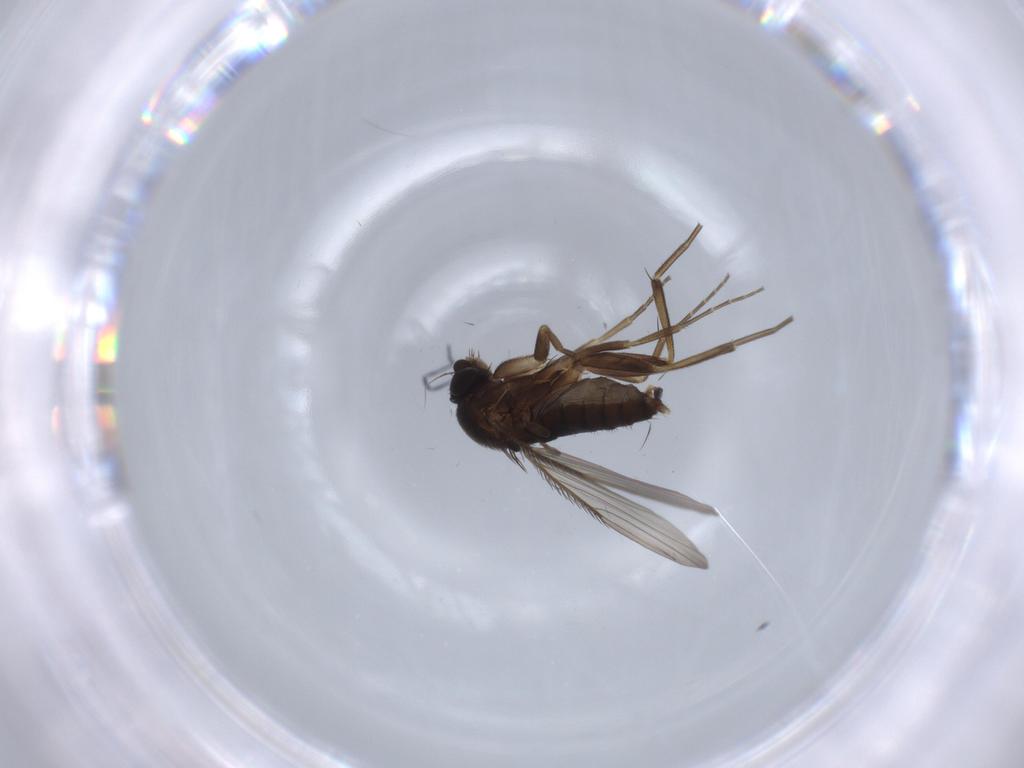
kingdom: Animalia
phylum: Arthropoda
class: Insecta
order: Diptera
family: Phoridae
